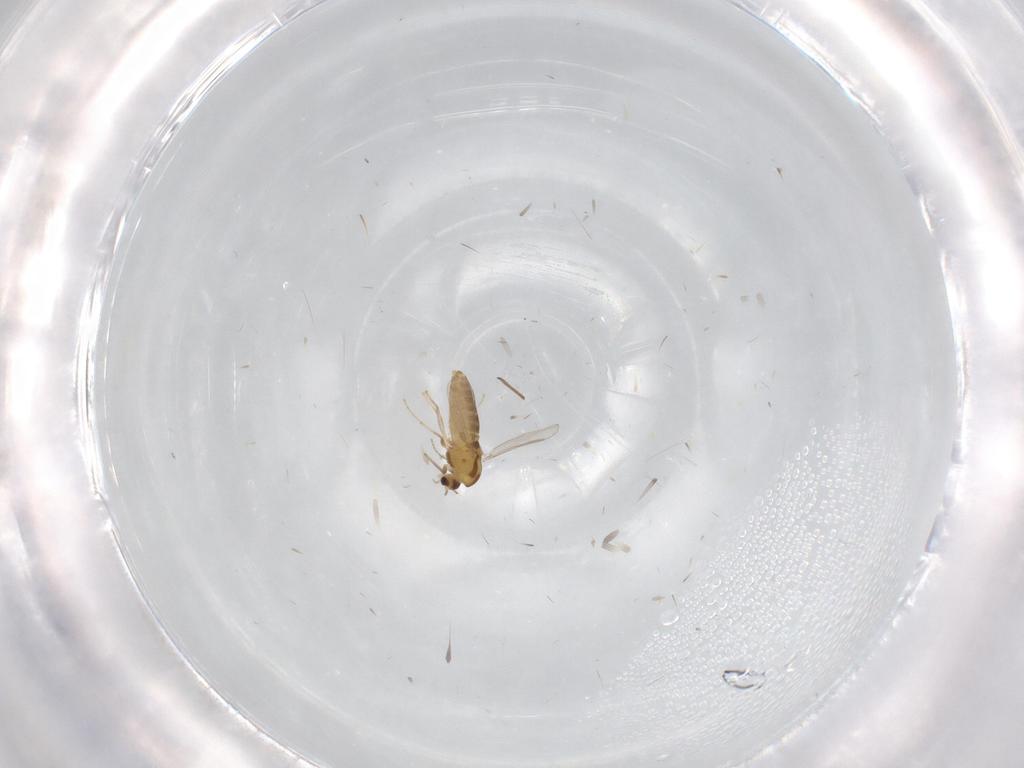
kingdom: Animalia
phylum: Arthropoda
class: Insecta
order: Diptera
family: Chironomidae
